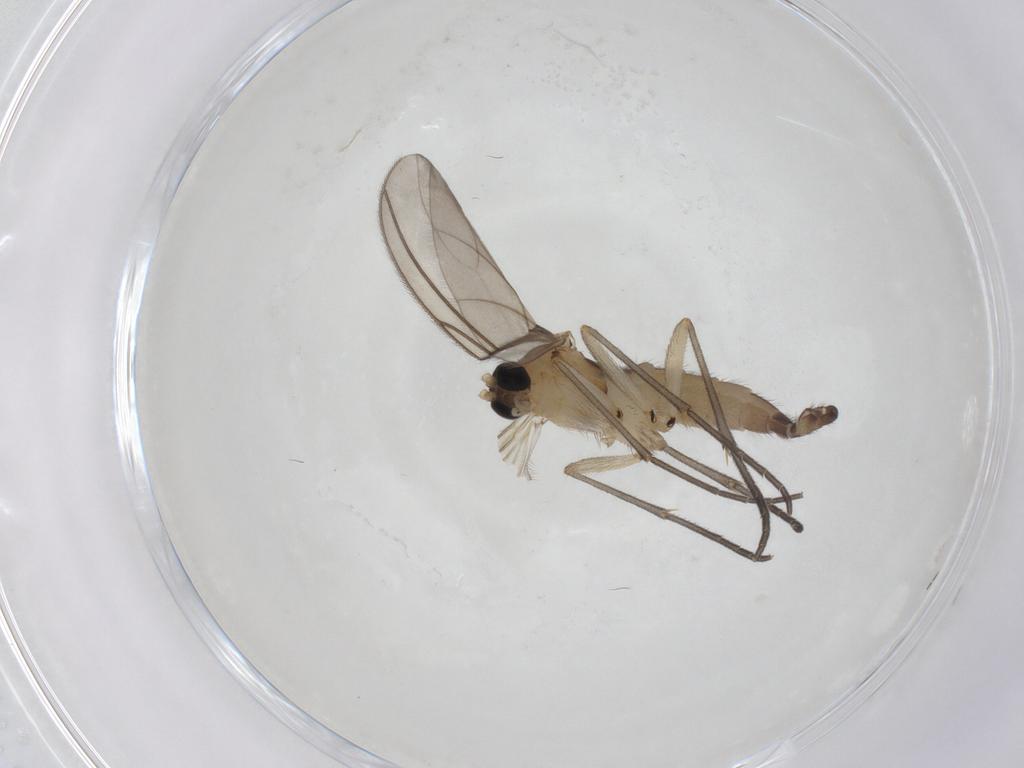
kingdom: Animalia
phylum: Arthropoda
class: Insecta
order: Diptera
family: Sciaridae
